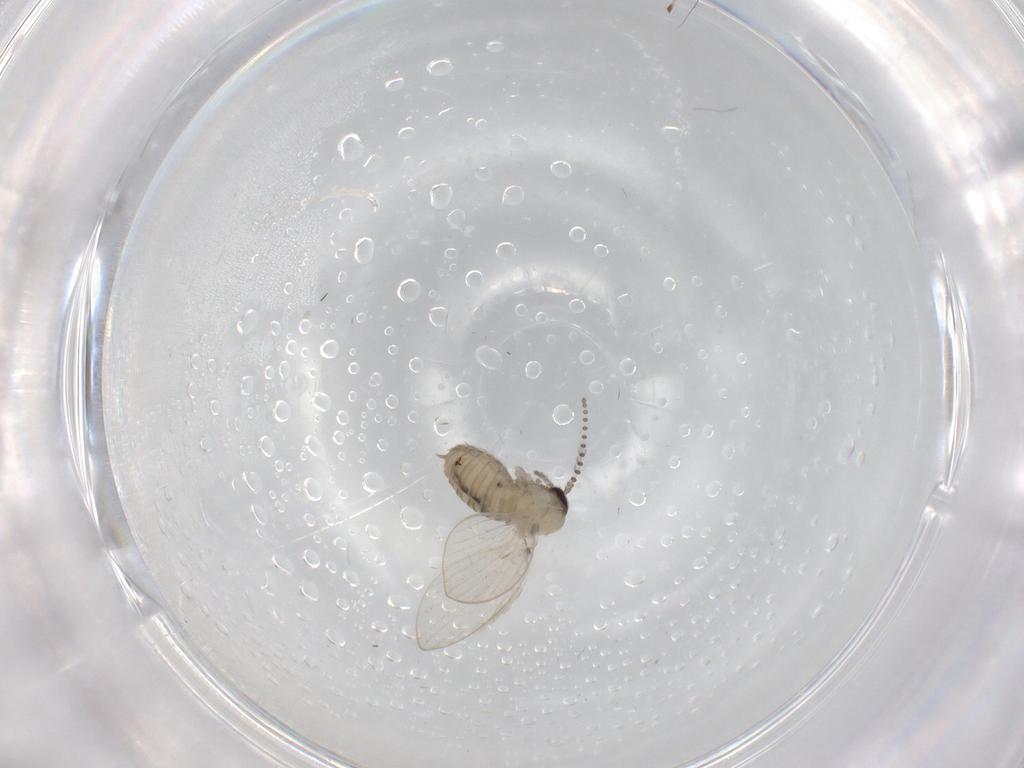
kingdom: Animalia
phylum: Arthropoda
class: Insecta
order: Diptera
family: Psychodidae
